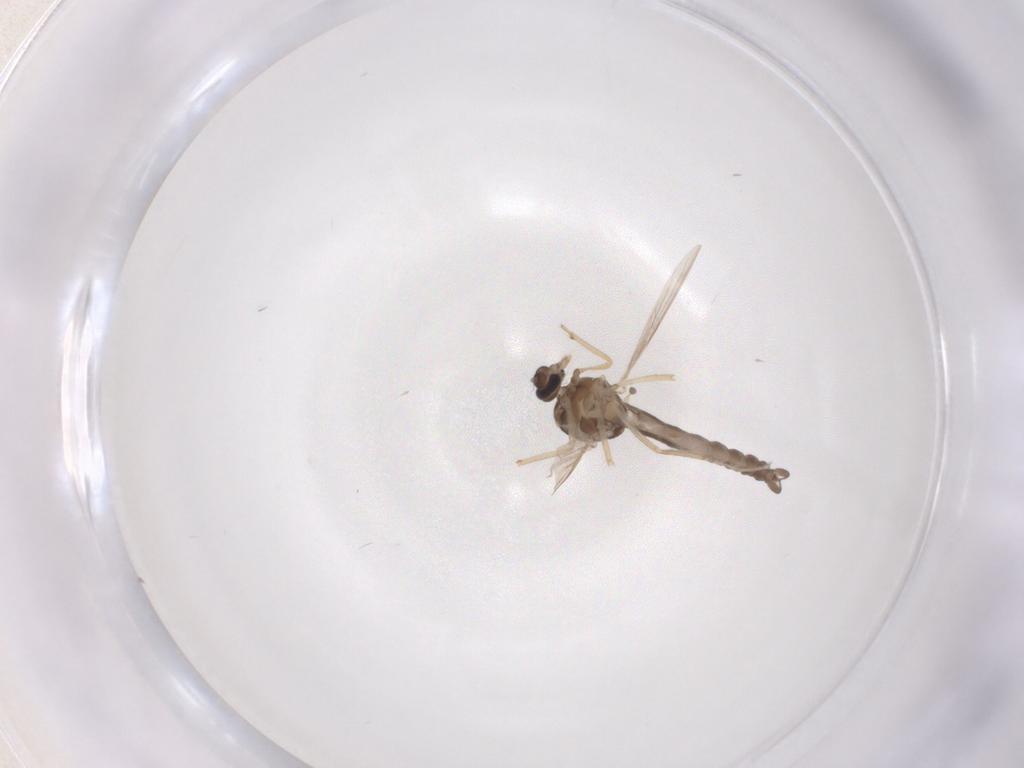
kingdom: Animalia
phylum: Arthropoda
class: Insecta
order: Diptera
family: Ceratopogonidae
